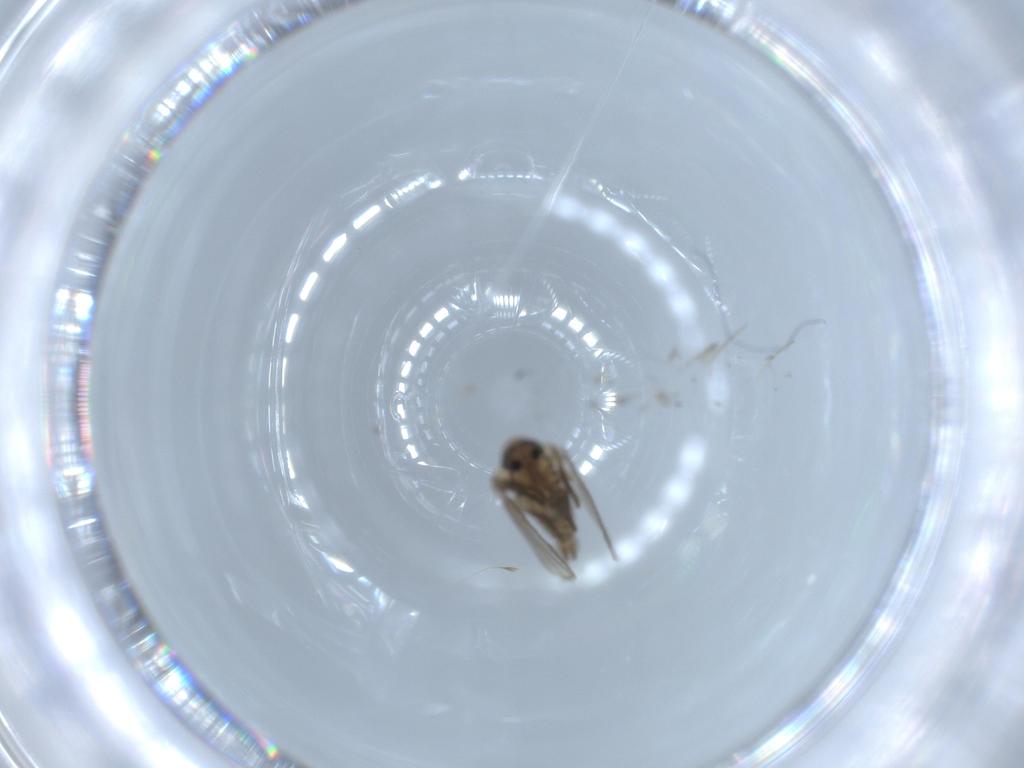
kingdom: Animalia
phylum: Arthropoda
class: Insecta
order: Diptera
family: Psychodidae
